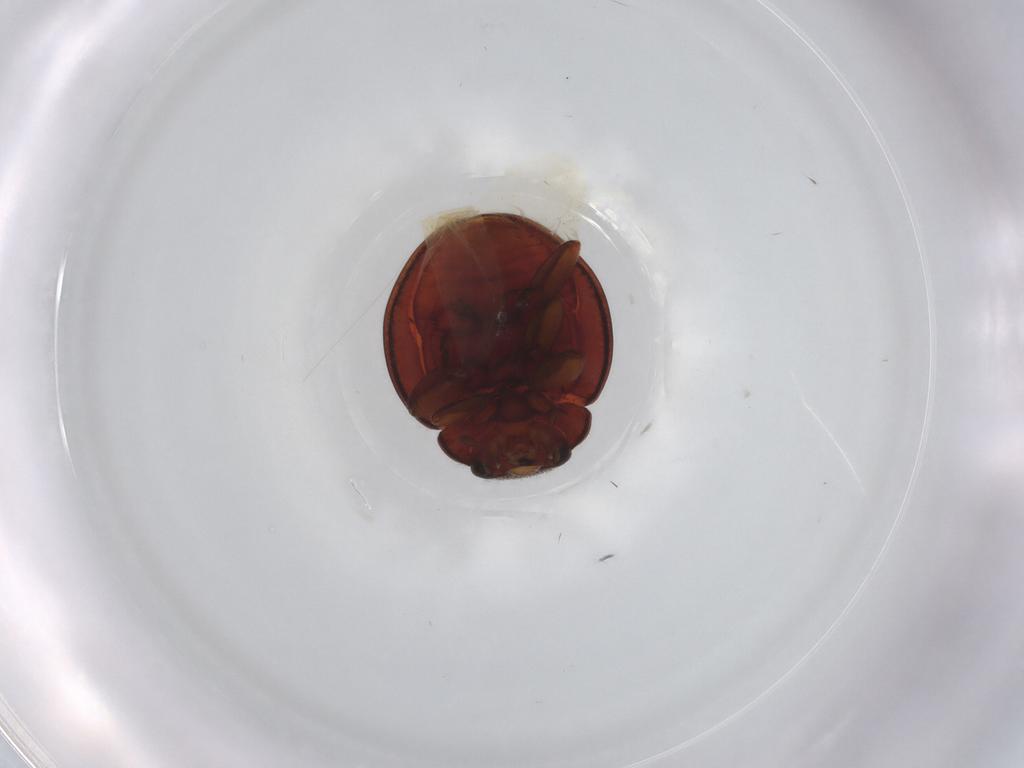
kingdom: Animalia
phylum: Arthropoda
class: Insecta
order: Coleoptera
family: Coccinellidae
